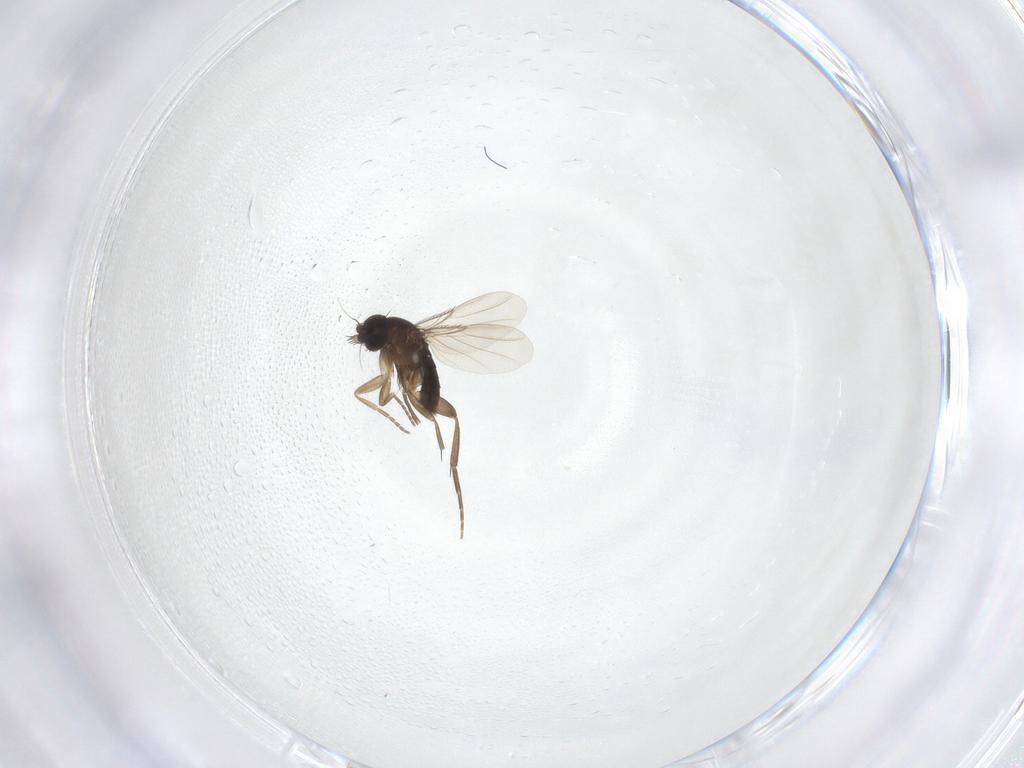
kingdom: Animalia
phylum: Arthropoda
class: Insecta
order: Diptera
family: Phoridae
